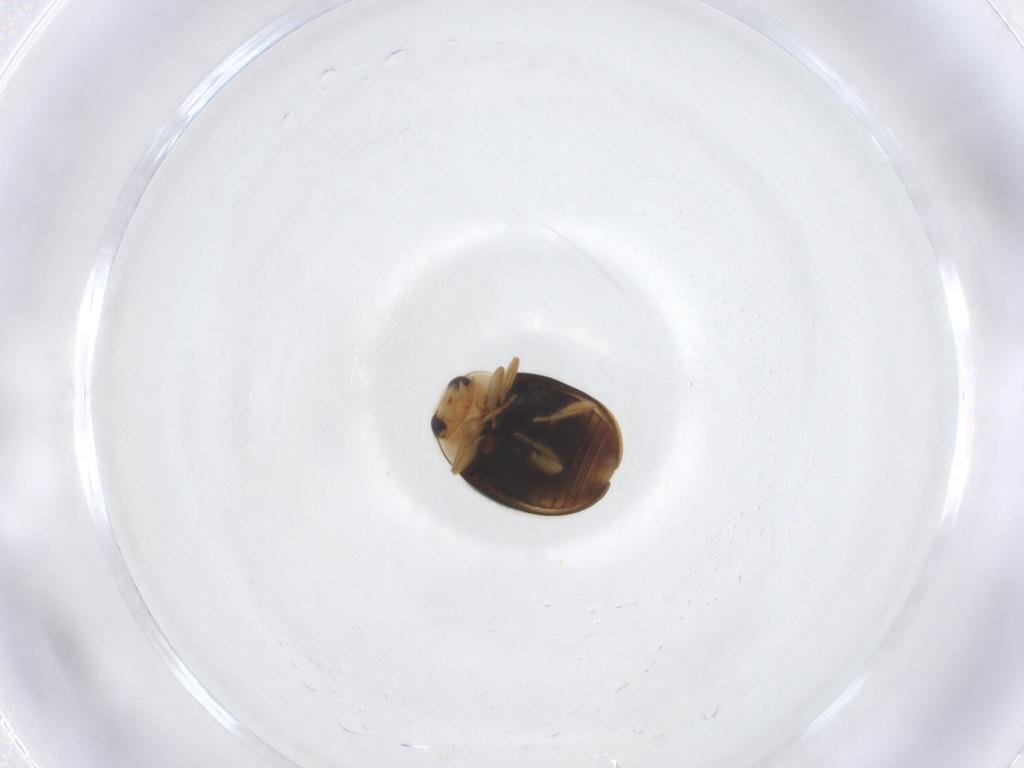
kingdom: Animalia
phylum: Arthropoda
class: Insecta
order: Coleoptera
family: Coccinellidae
